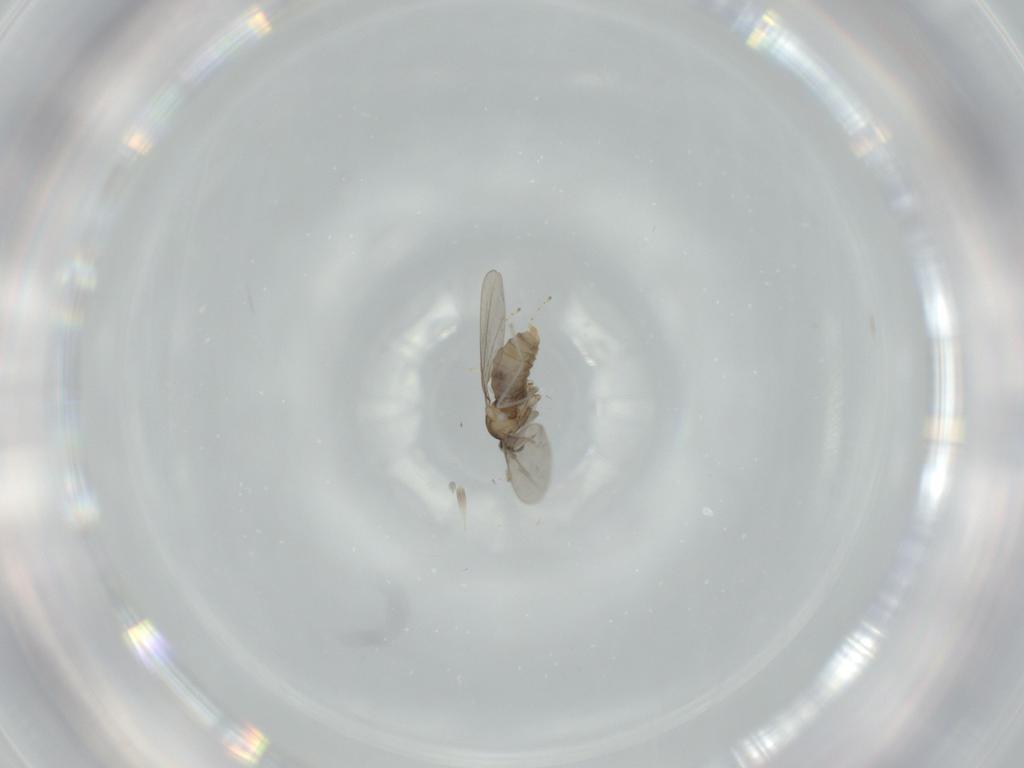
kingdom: Animalia
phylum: Arthropoda
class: Insecta
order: Diptera
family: Cecidomyiidae
